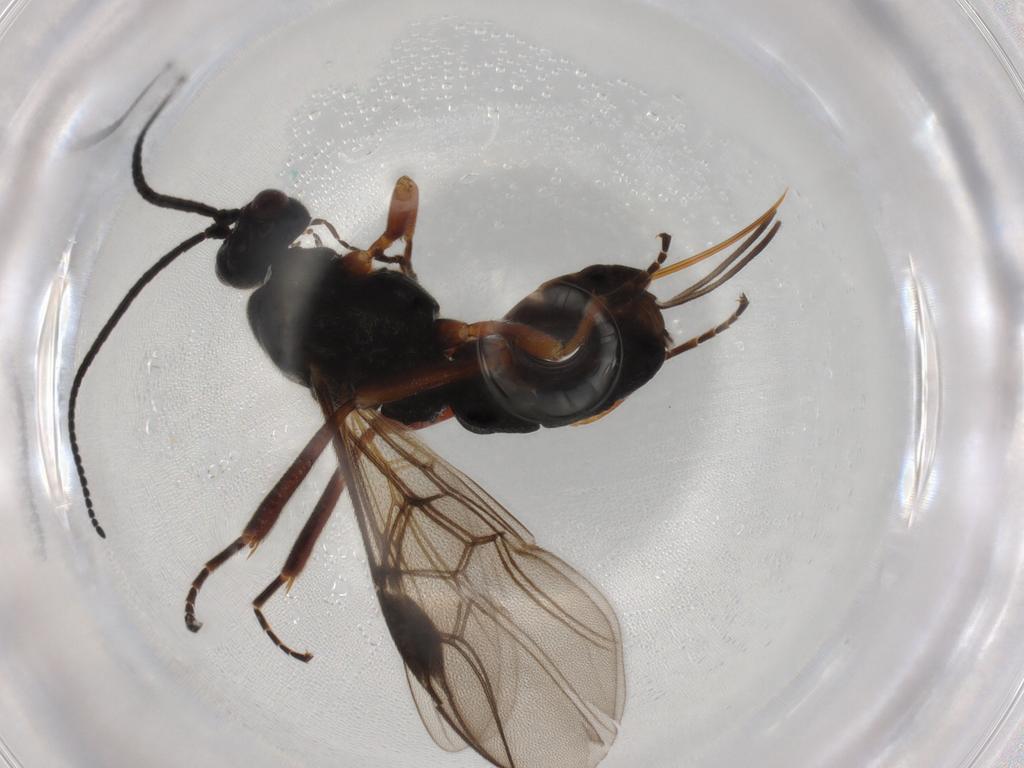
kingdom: Animalia
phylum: Arthropoda
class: Insecta
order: Hymenoptera
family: Braconidae
